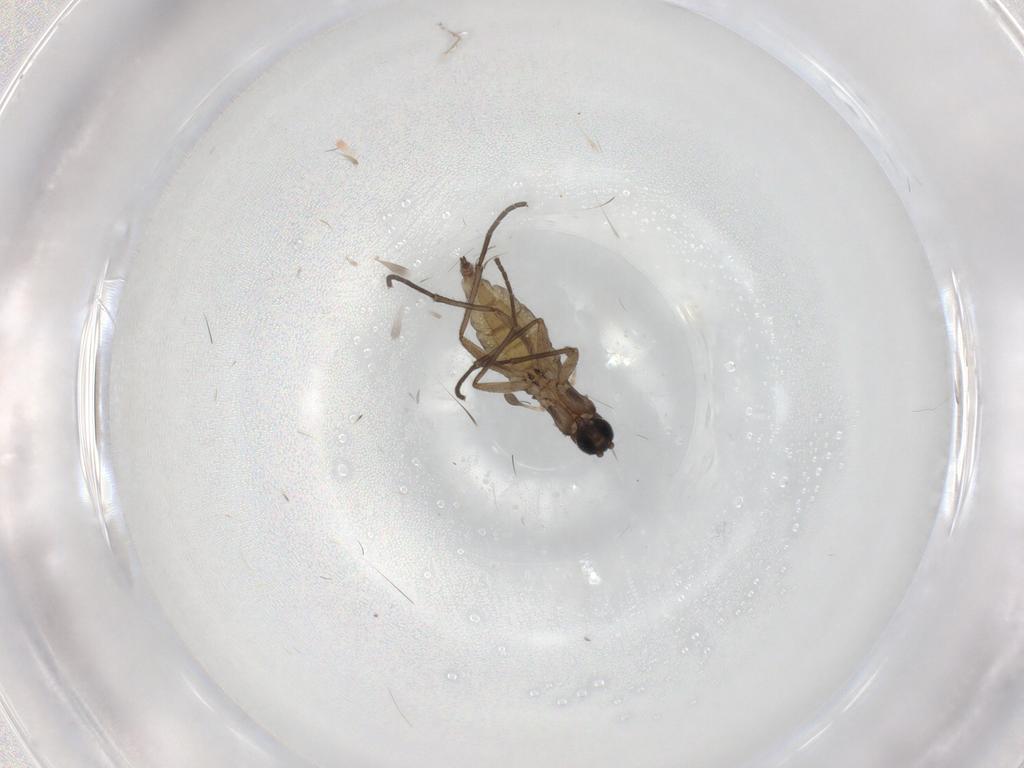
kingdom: Animalia
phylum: Arthropoda
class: Insecta
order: Diptera
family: Sciaridae
